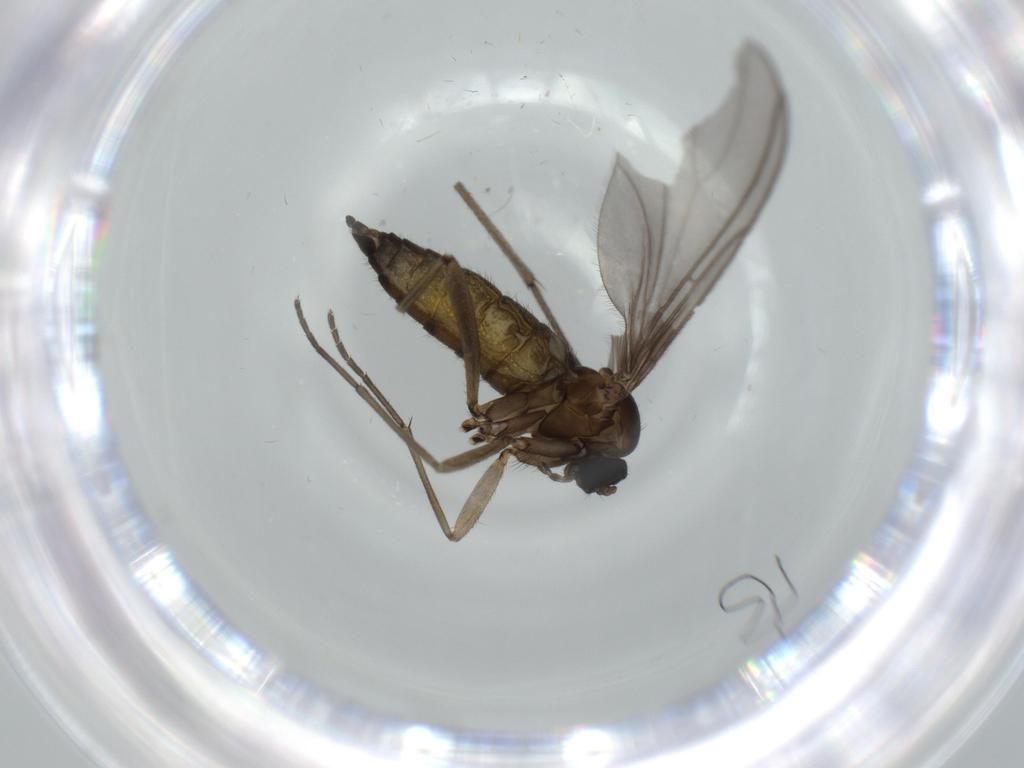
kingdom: Animalia
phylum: Arthropoda
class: Insecta
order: Diptera
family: Sciaridae
